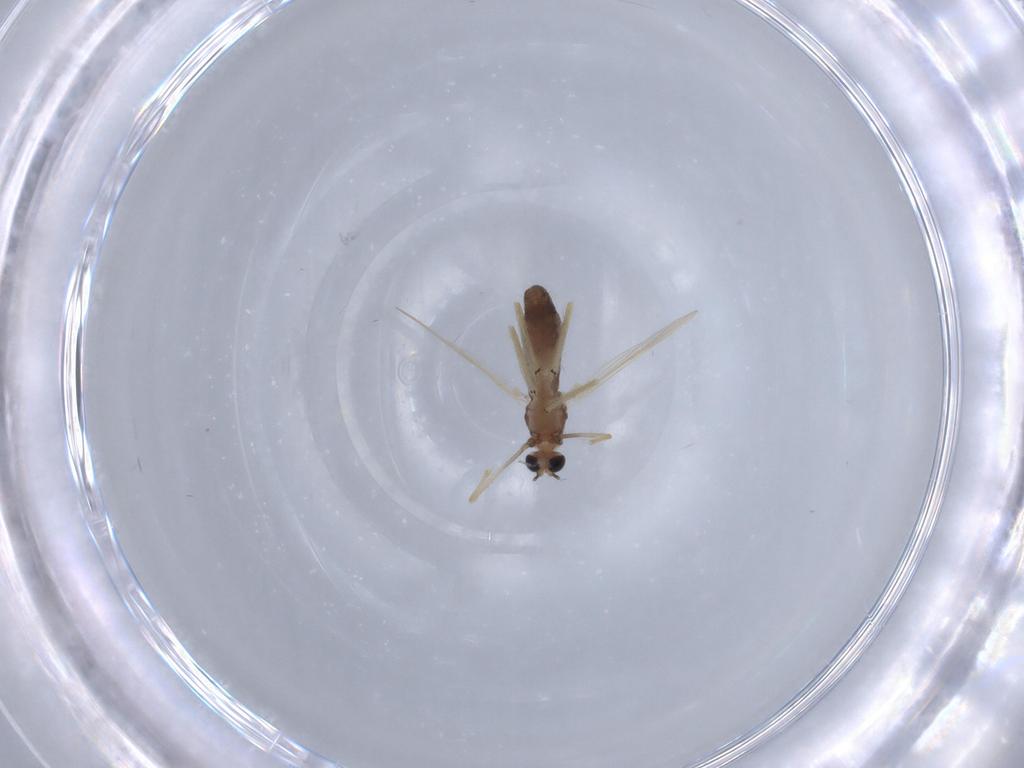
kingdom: Animalia
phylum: Arthropoda
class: Insecta
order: Diptera
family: Chironomidae
